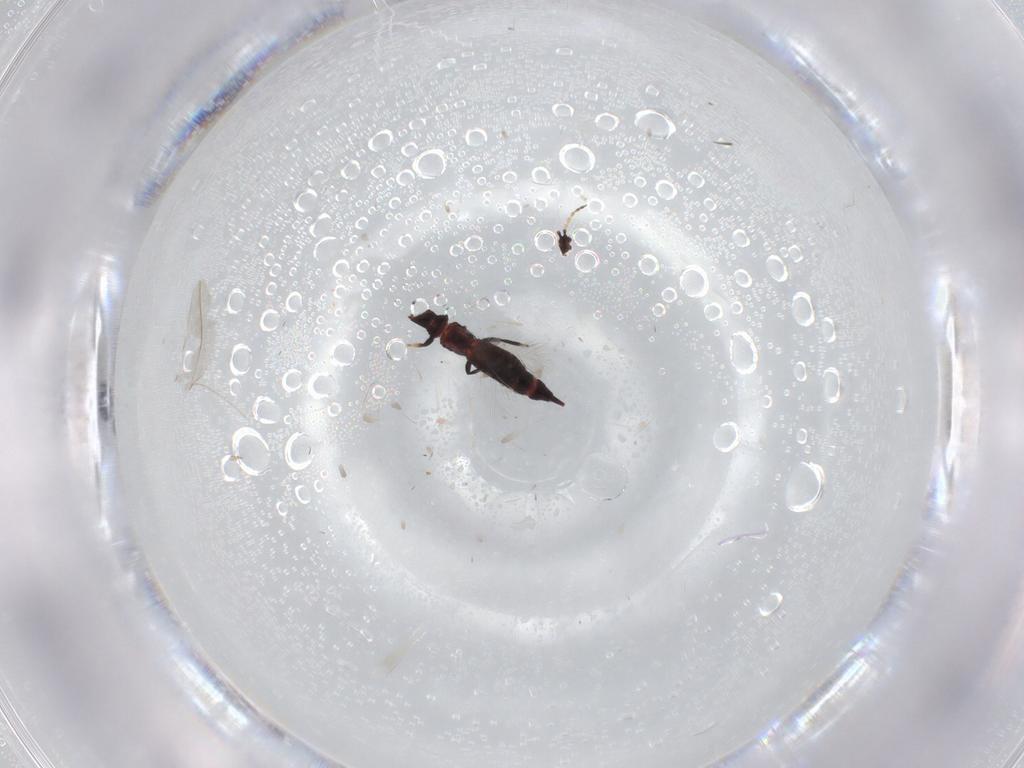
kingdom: Animalia
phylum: Arthropoda
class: Insecta
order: Thysanoptera
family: Phlaeothripidae
